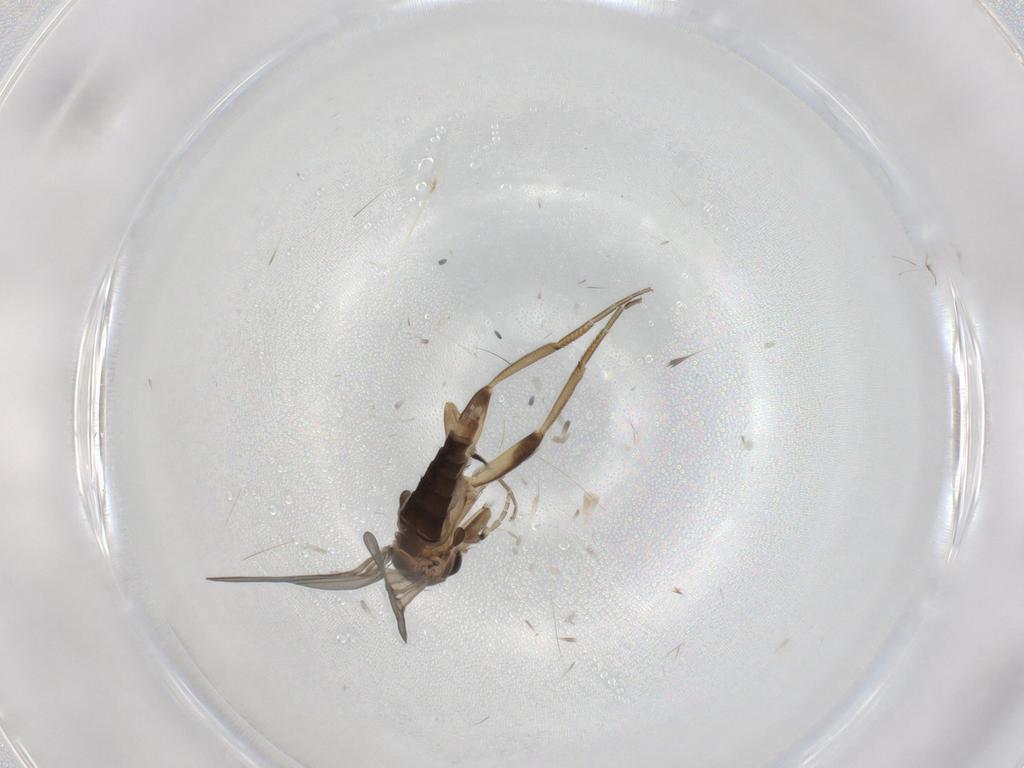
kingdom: Animalia
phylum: Arthropoda
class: Insecta
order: Diptera
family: Phoridae
